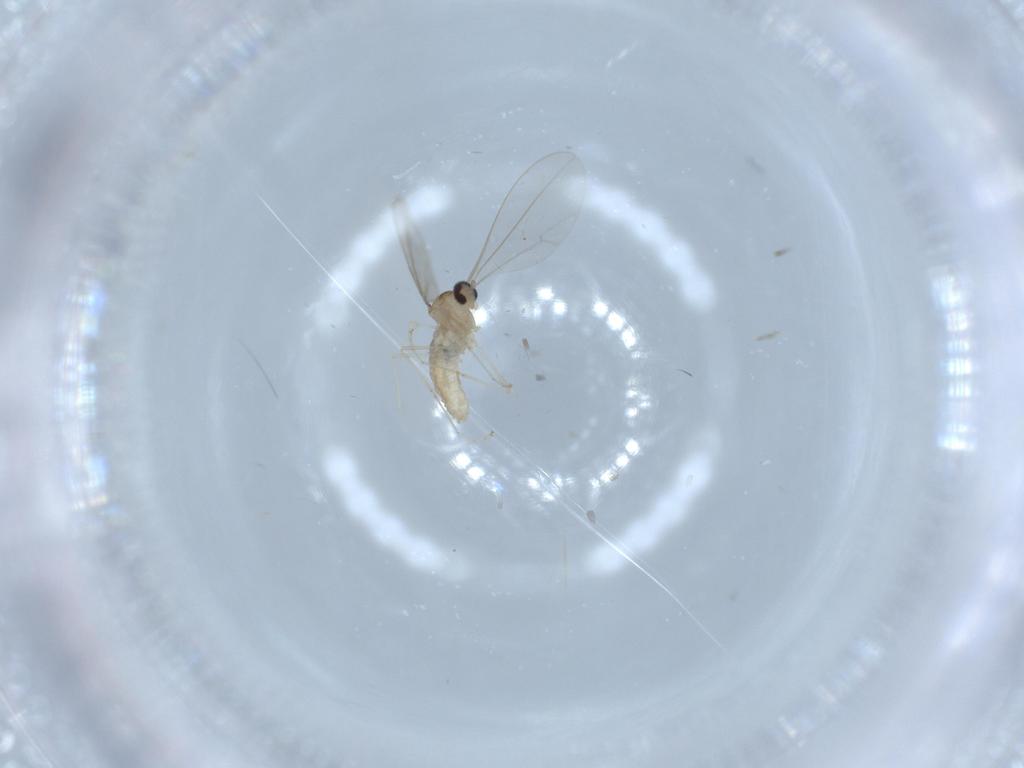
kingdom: Animalia
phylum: Arthropoda
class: Insecta
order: Diptera
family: Cecidomyiidae
